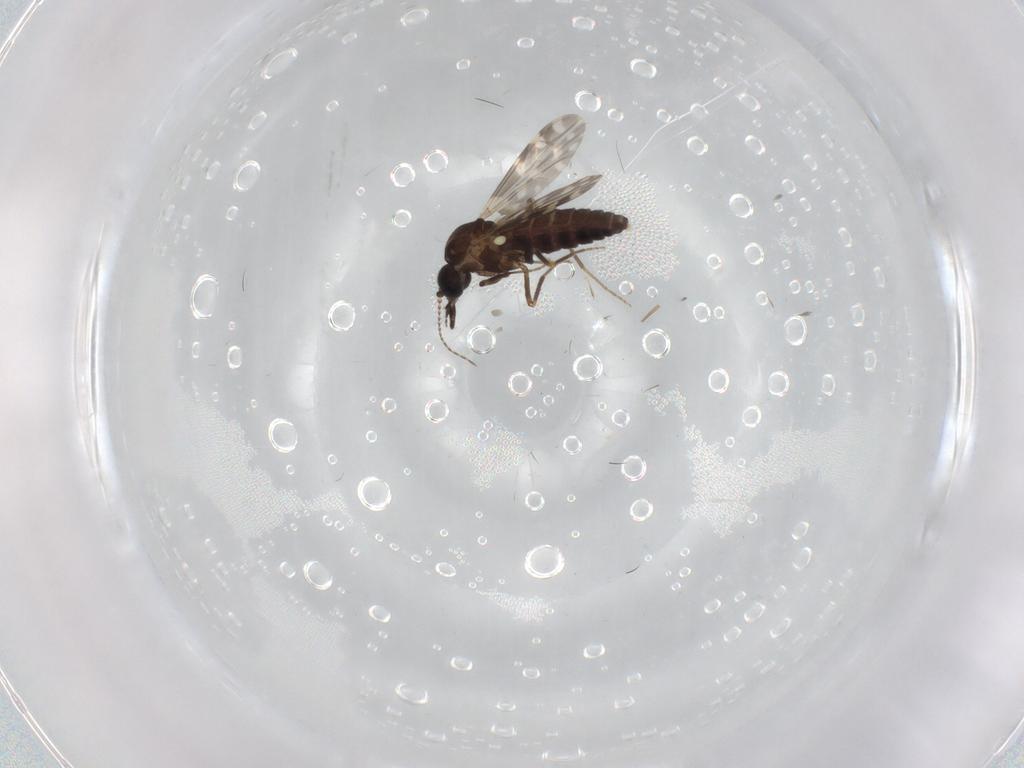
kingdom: Animalia
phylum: Arthropoda
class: Insecta
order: Diptera
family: Ceratopogonidae
